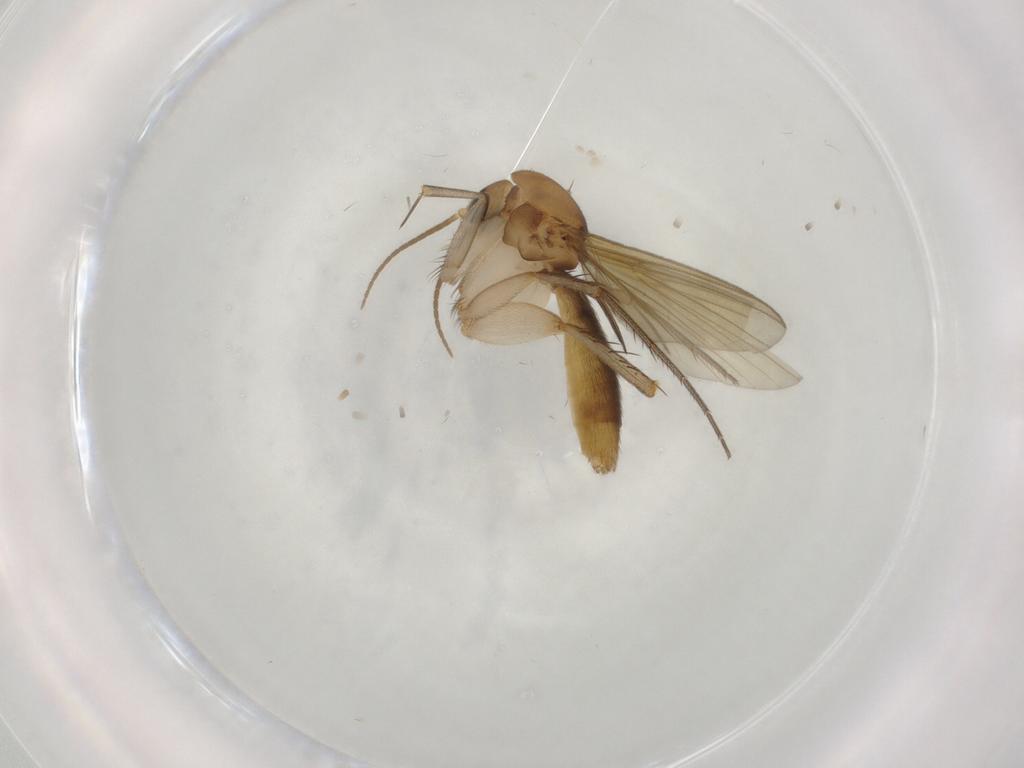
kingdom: Animalia
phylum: Arthropoda
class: Insecta
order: Diptera
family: Mycetophilidae
